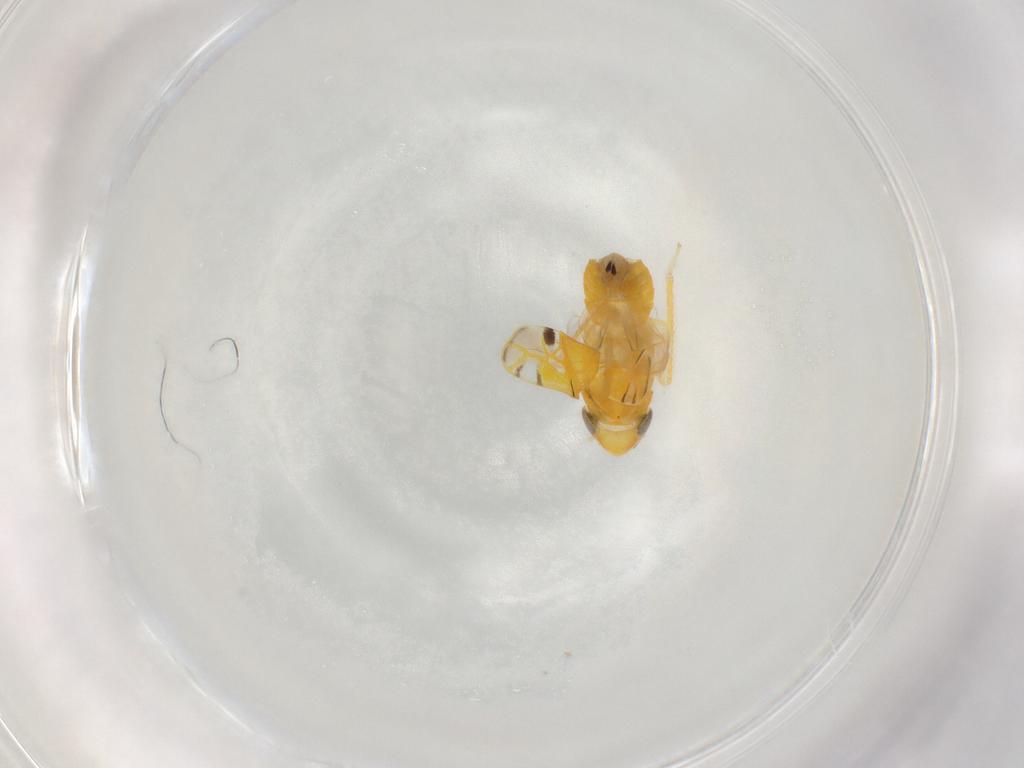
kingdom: Animalia
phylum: Arthropoda
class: Insecta
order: Hemiptera
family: Cicadellidae
